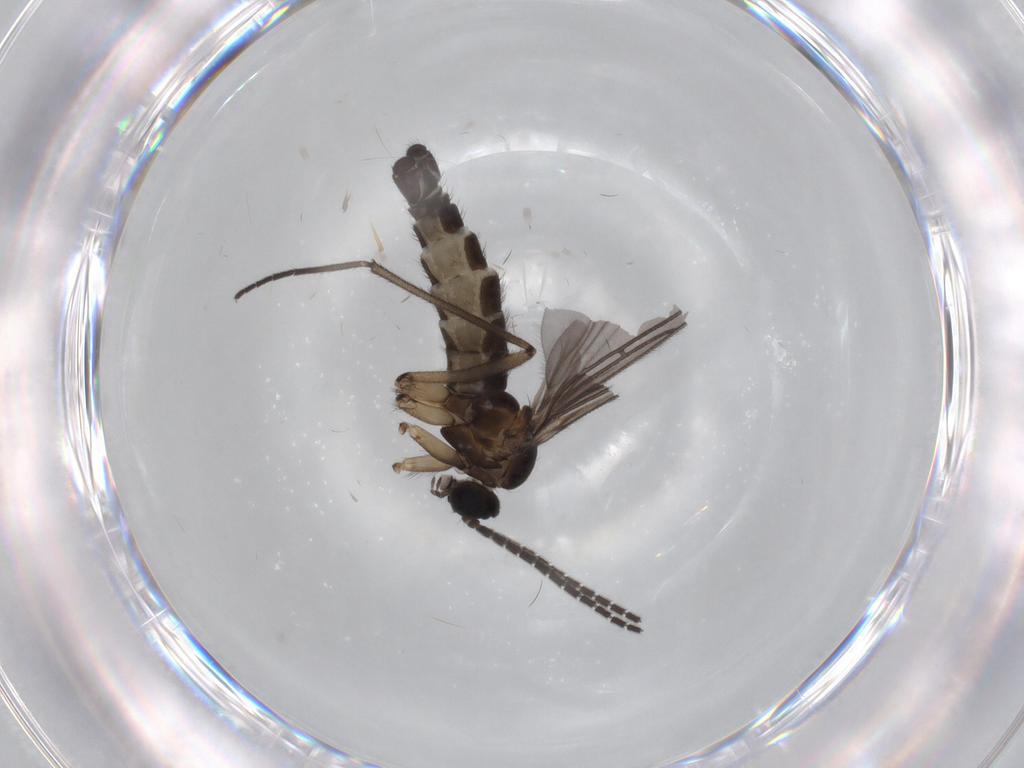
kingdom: Animalia
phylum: Arthropoda
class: Insecta
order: Diptera
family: Sciaridae
